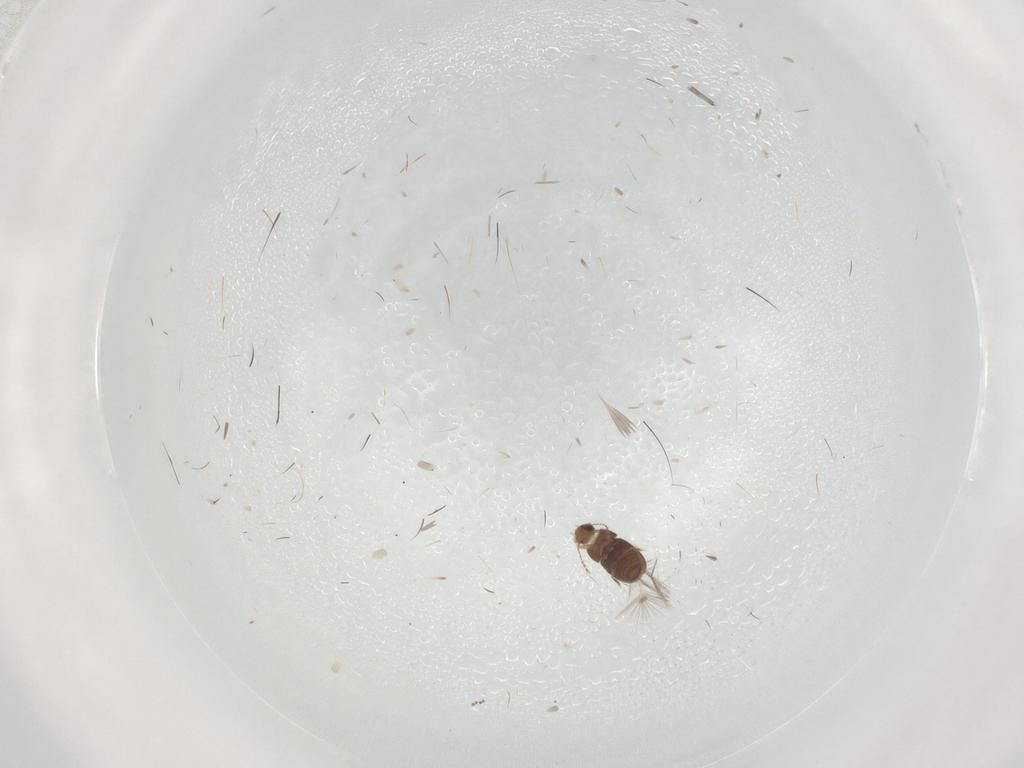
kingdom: Animalia
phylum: Arthropoda
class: Insecta
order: Coleoptera
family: Ptiliidae
